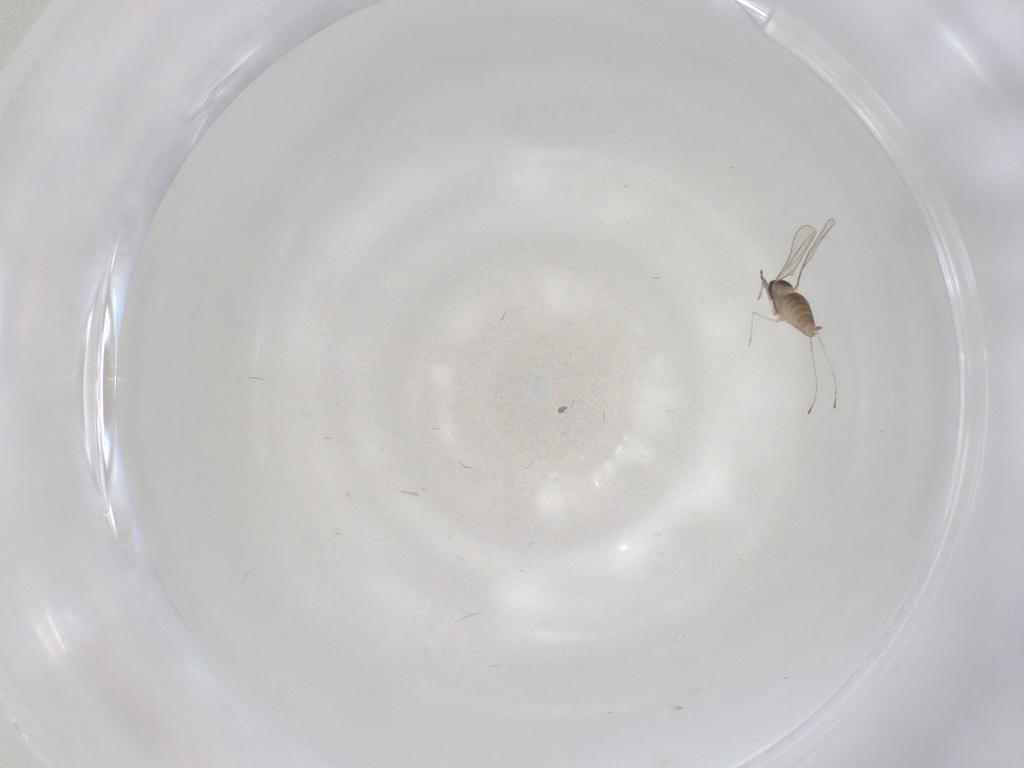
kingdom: Animalia
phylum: Arthropoda
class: Insecta
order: Diptera
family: Cecidomyiidae
